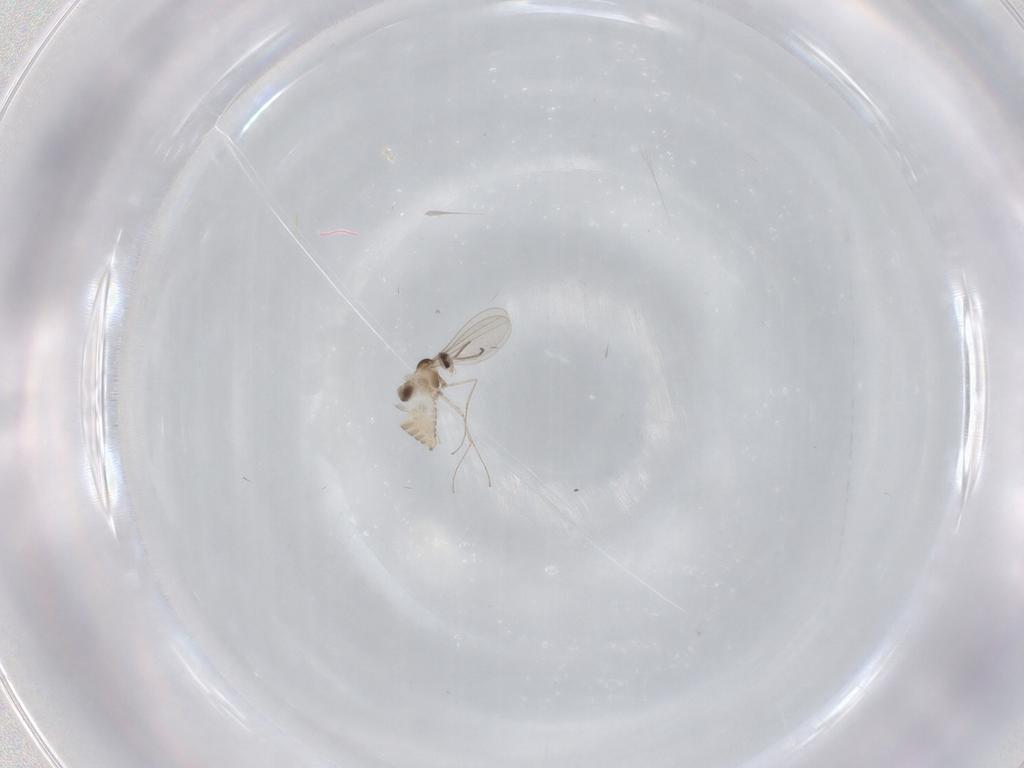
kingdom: Animalia
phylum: Arthropoda
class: Insecta
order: Diptera
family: Cecidomyiidae
